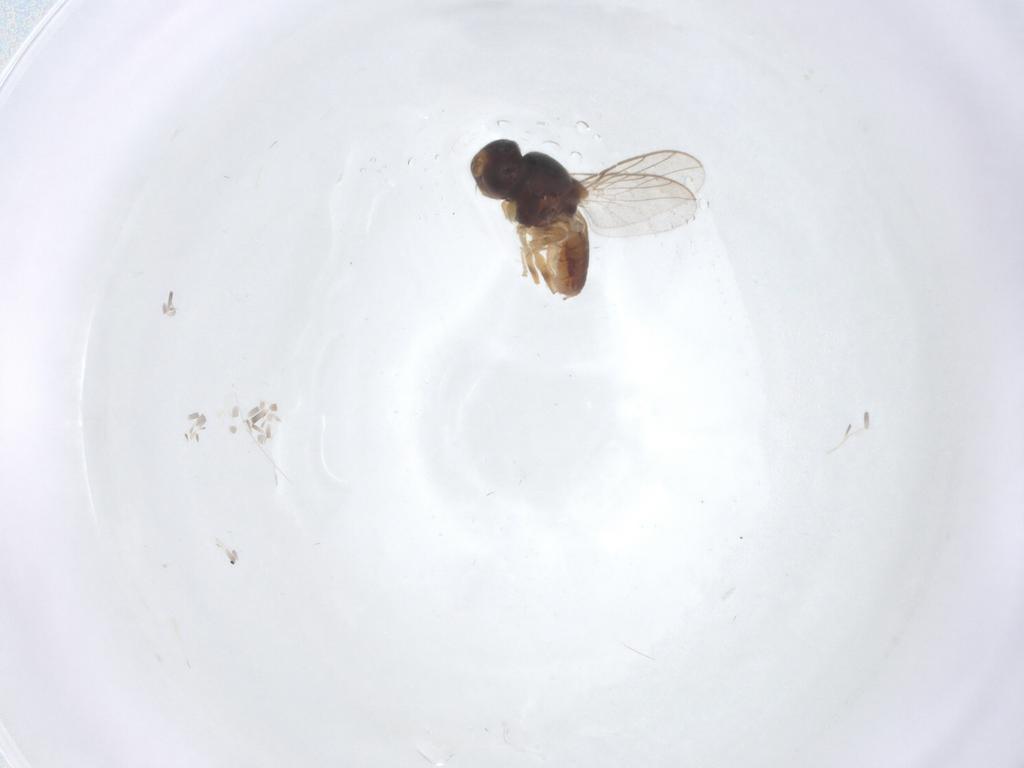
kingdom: Animalia
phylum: Arthropoda
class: Insecta
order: Diptera
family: Chloropidae
